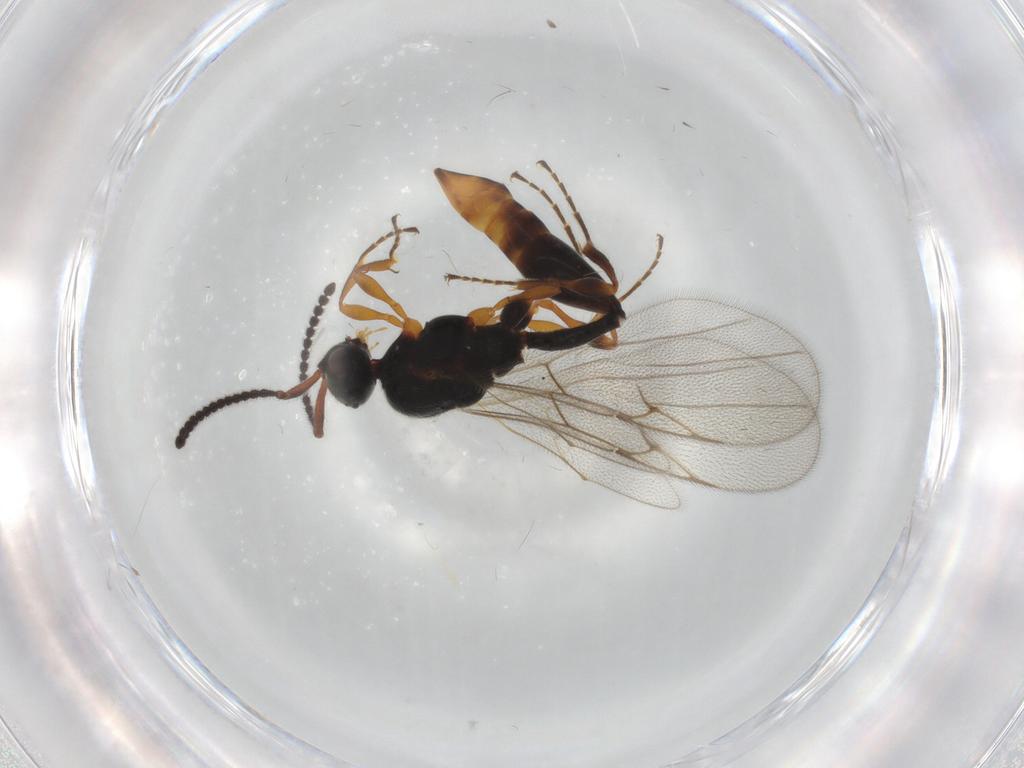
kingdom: Animalia
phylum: Arthropoda
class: Insecta
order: Hymenoptera
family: Diapriidae
